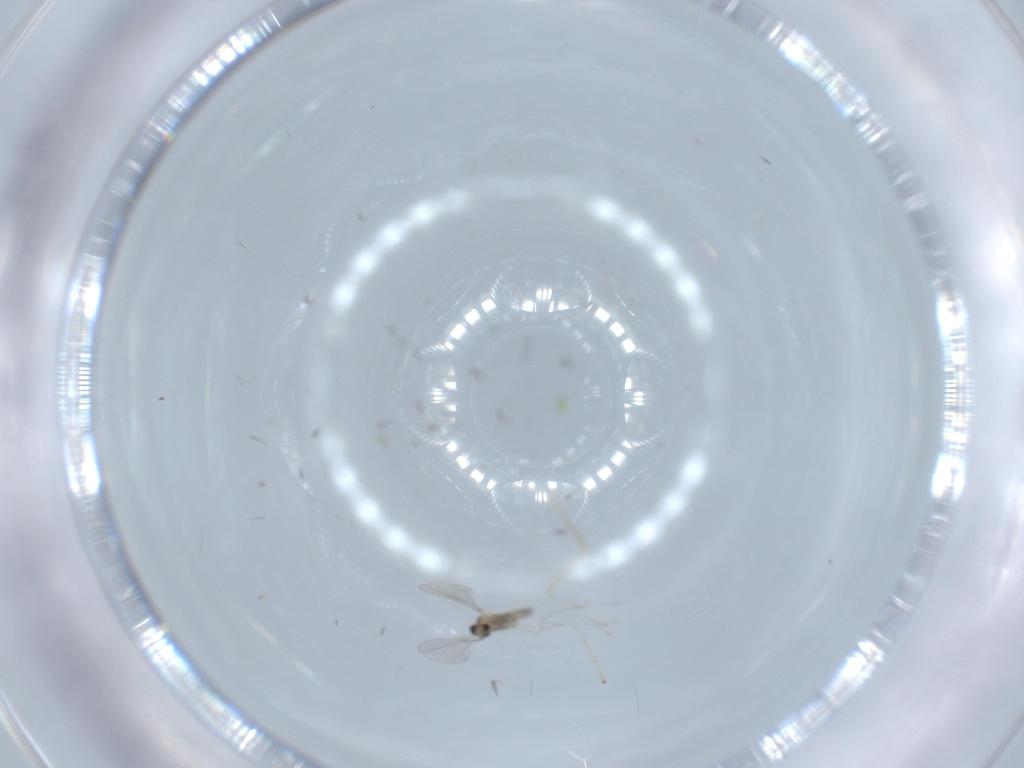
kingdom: Animalia
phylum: Arthropoda
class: Insecta
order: Diptera
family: Cecidomyiidae
